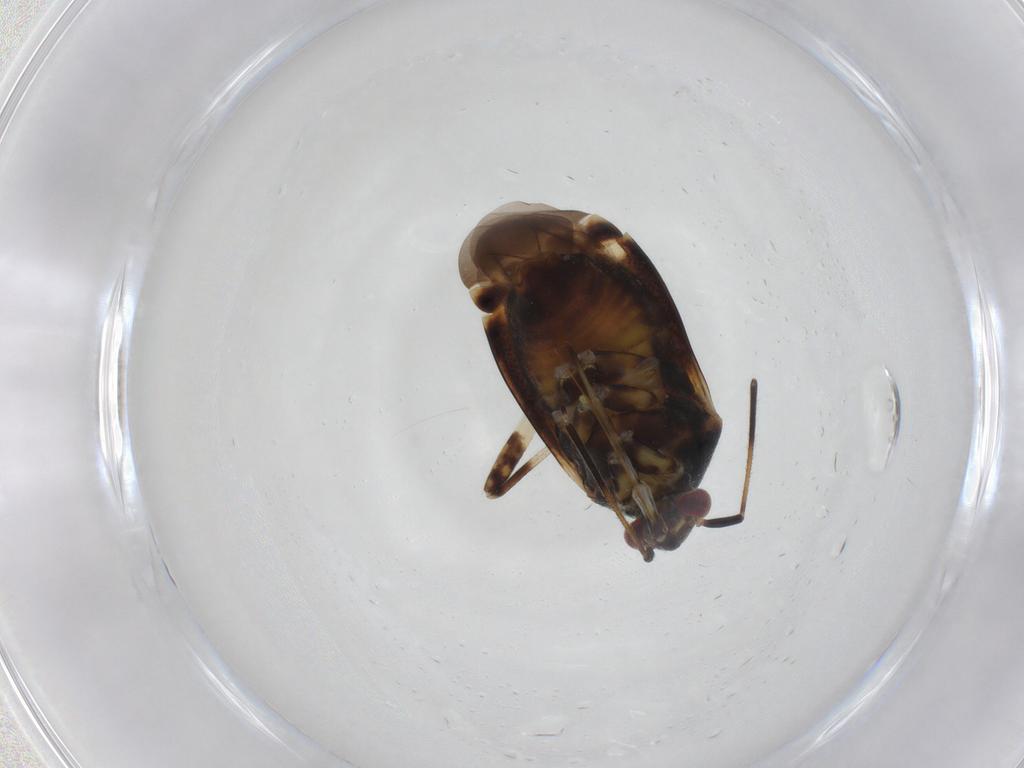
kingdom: Animalia
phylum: Arthropoda
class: Insecta
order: Hemiptera
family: Miridae
